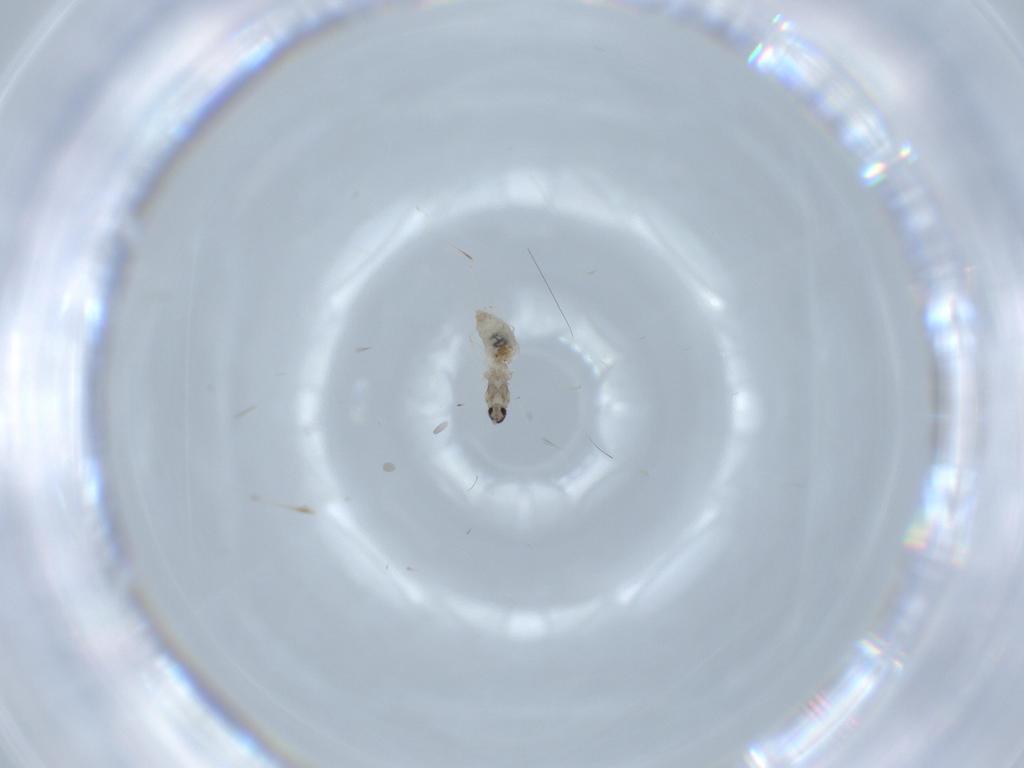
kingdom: Animalia
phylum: Arthropoda
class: Insecta
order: Diptera
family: Cecidomyiidae
